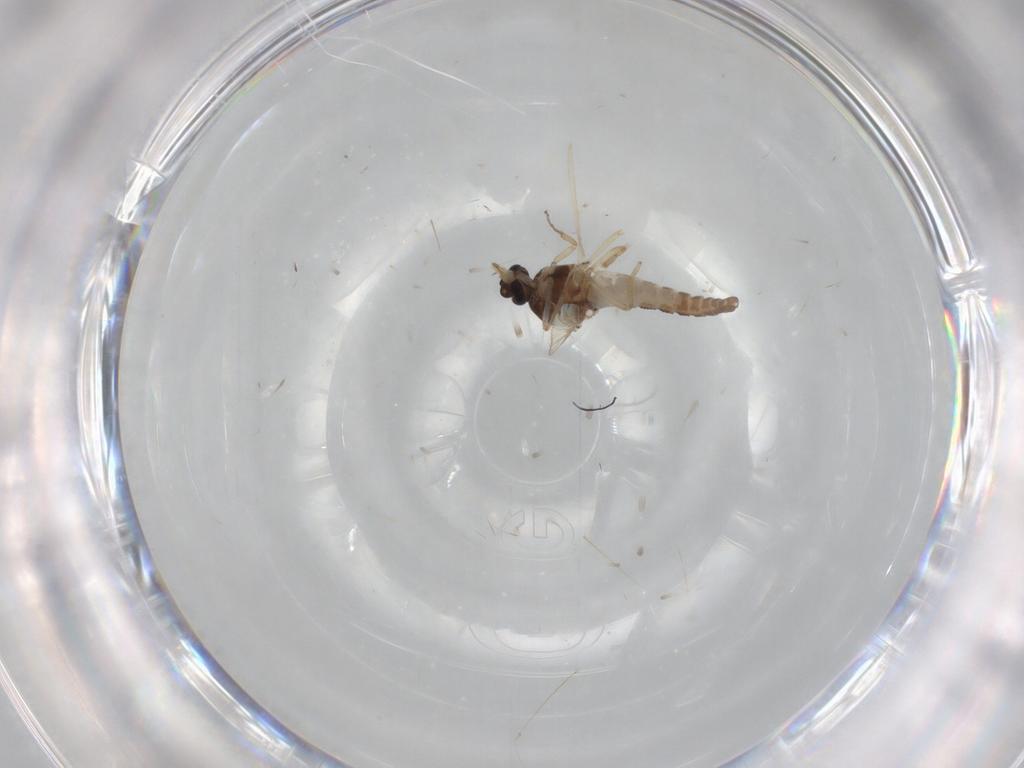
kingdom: Animalia
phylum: Arthropoda
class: Insecta
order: Diptera
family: Ceratopogonidae
